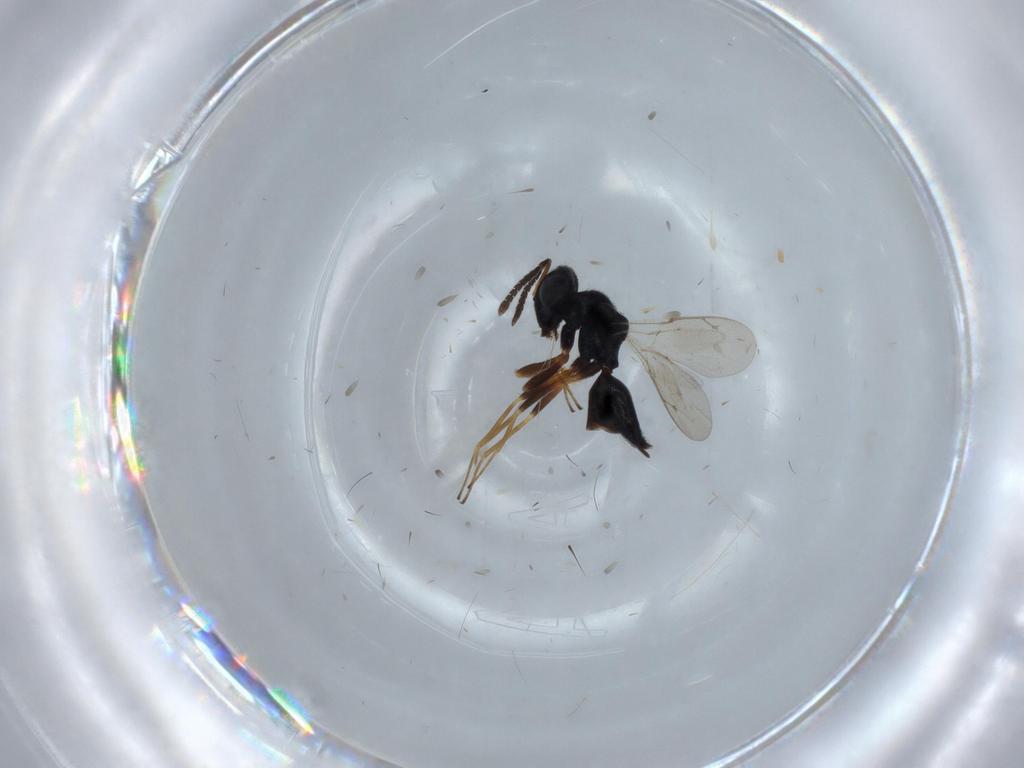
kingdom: Animalia
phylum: Arthropoda
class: Insecta
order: Hymenoptera
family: Pteromalidae
